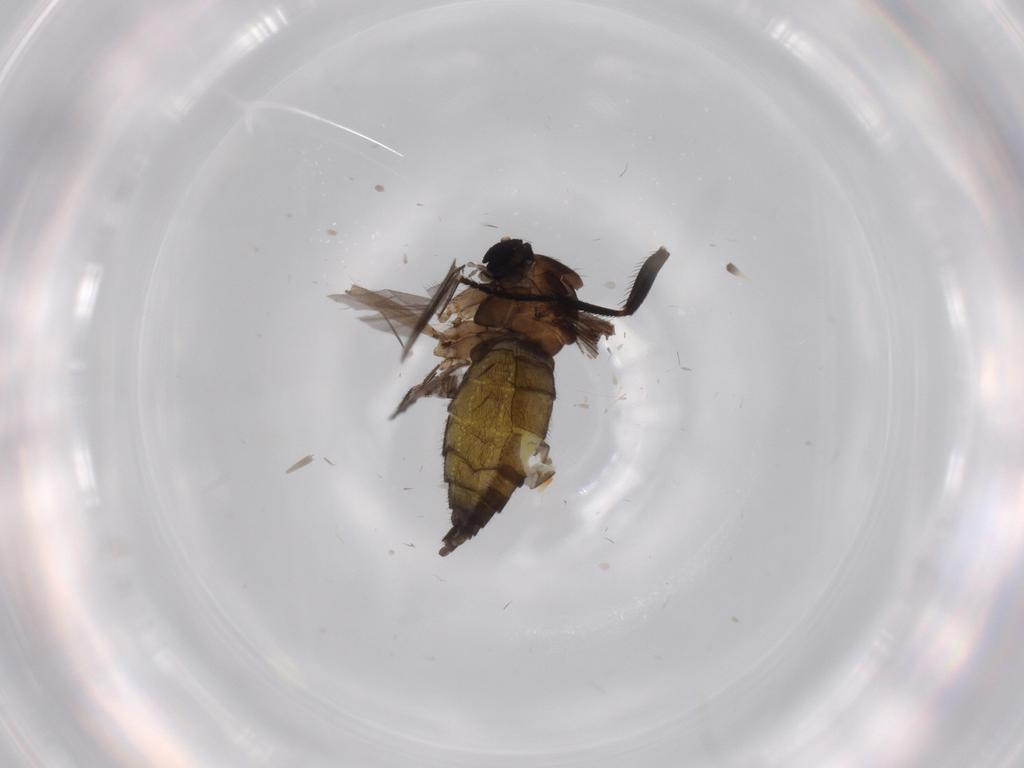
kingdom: Animalia
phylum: Arthropoda
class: Insecta
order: Diptera
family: Milichiidae
